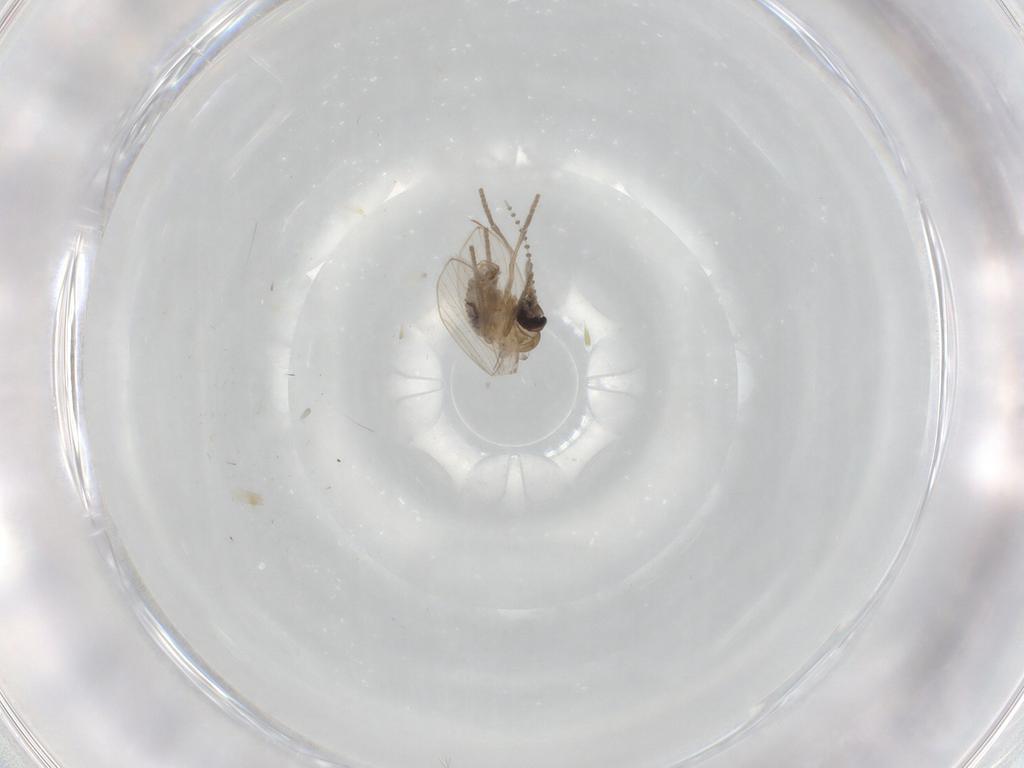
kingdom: Animalia
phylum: Arthropoda
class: Insecta
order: Diptera
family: Psychodidae
